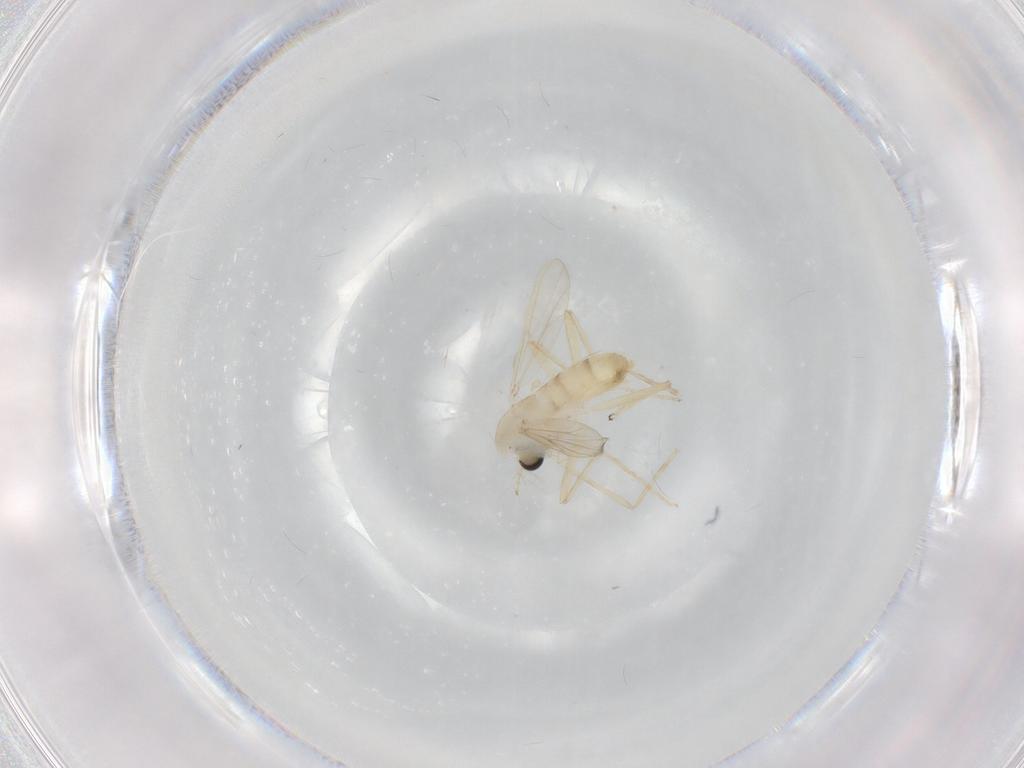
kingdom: Animalia
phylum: Arthropoda
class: Insecta
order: Diptera
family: Chironomidae
